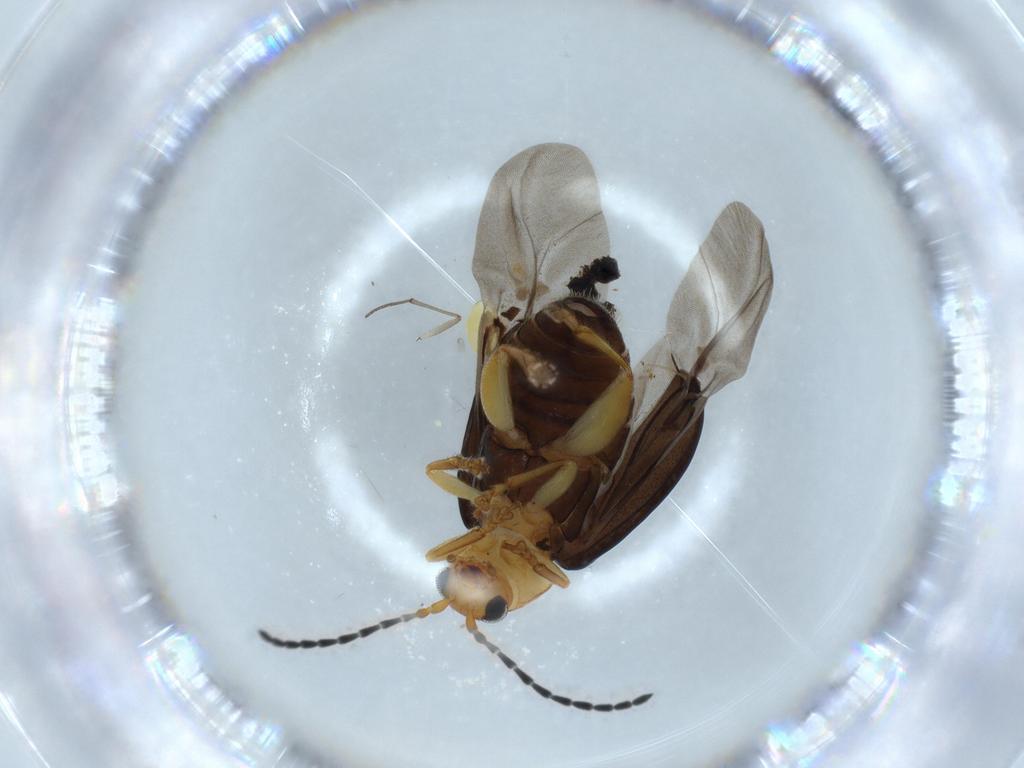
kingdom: Animalia
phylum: Arthropoda
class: Insecta
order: Coleoptera
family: Chrysomelidae
